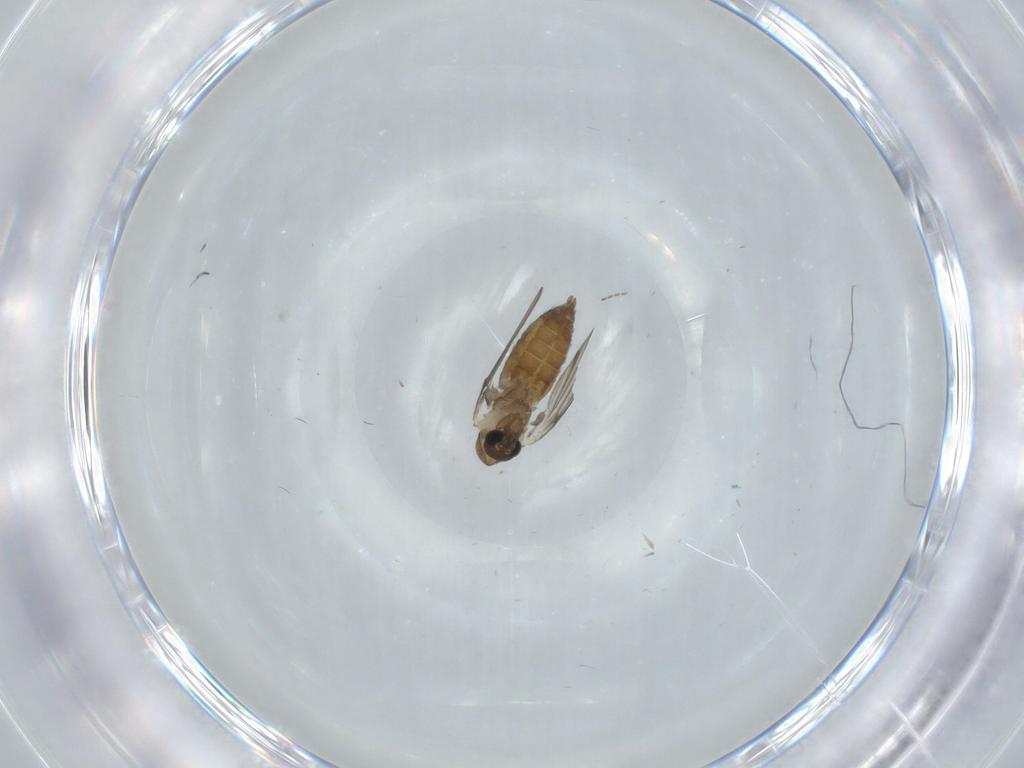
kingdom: Animalia
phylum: Arthropoda
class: Insecta
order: Diptera
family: Psychodidae
